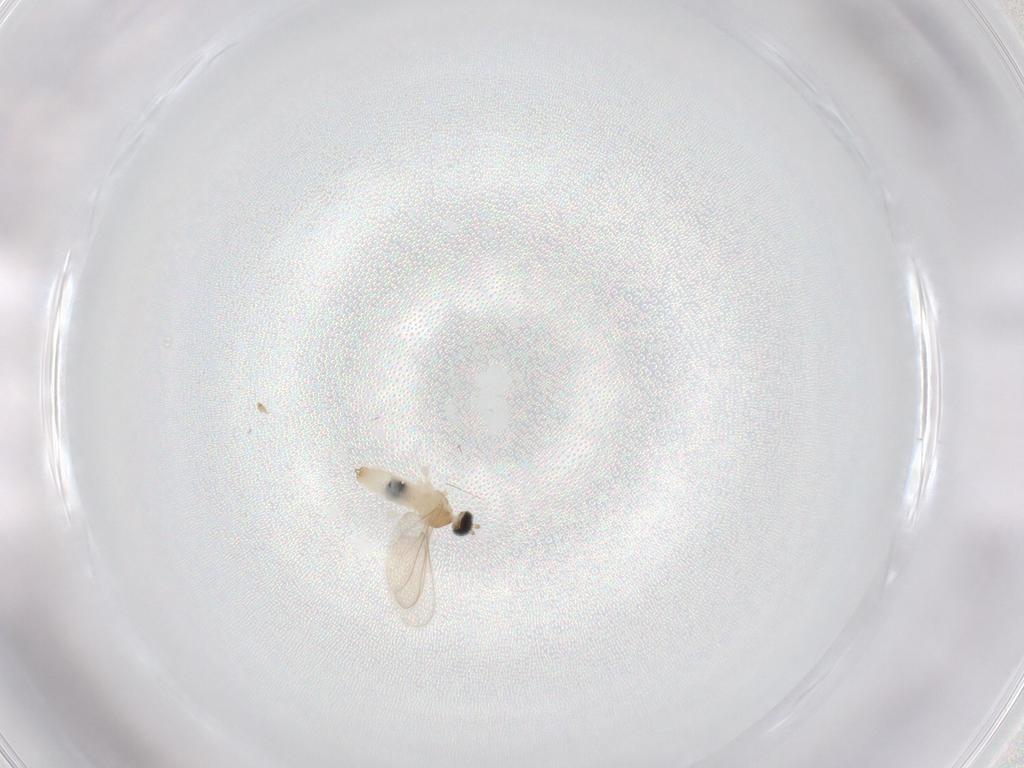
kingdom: Animalia
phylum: Arthropoda
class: Insecta
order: Diptera
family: Cecidomyiidae
